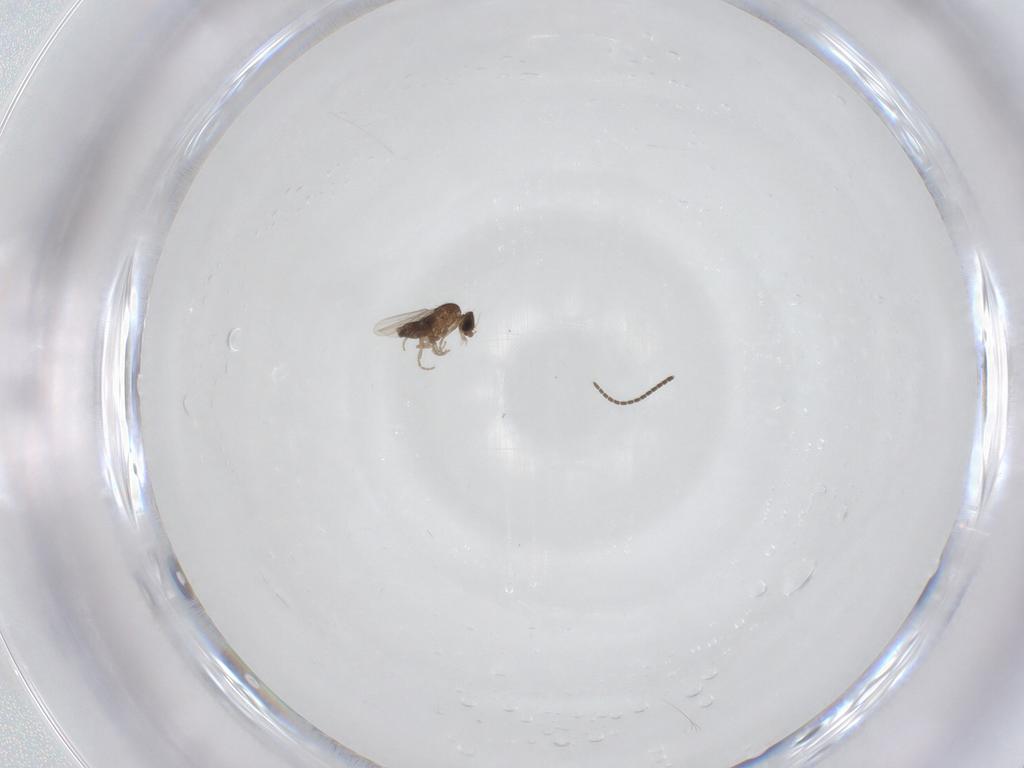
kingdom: Animalia
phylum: Arthropoda
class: Insecta
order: Diptera
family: Sciaridae
